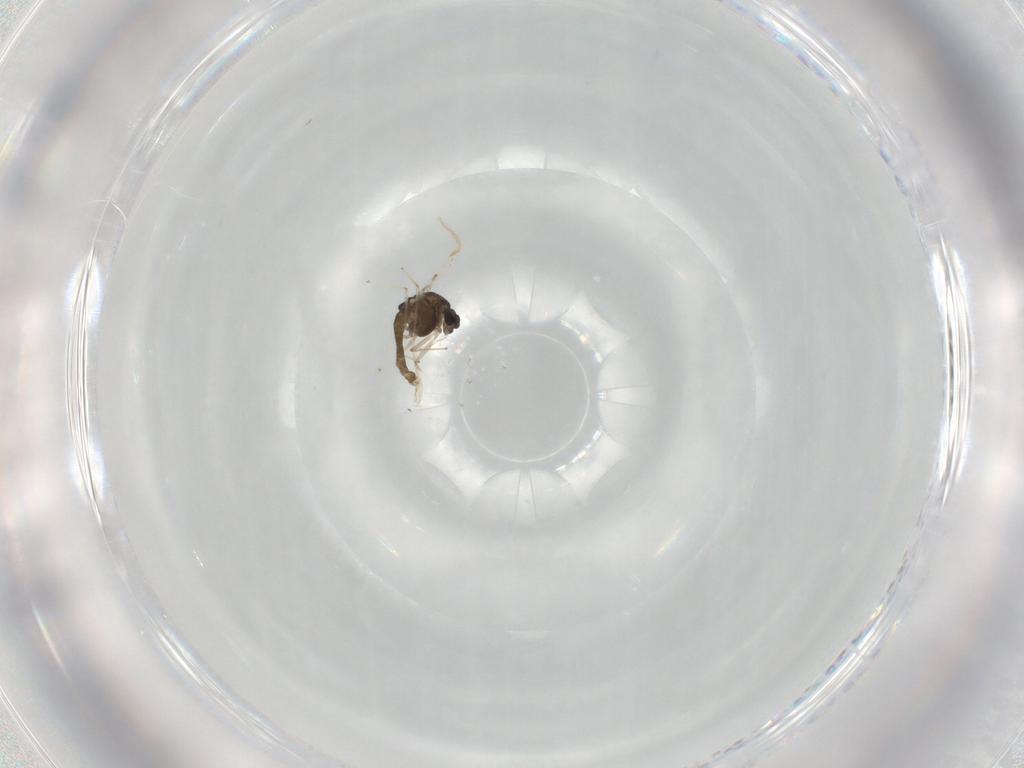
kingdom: Animalia
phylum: Arthropoda
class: Insecta
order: Diptera
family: Chironomidae
